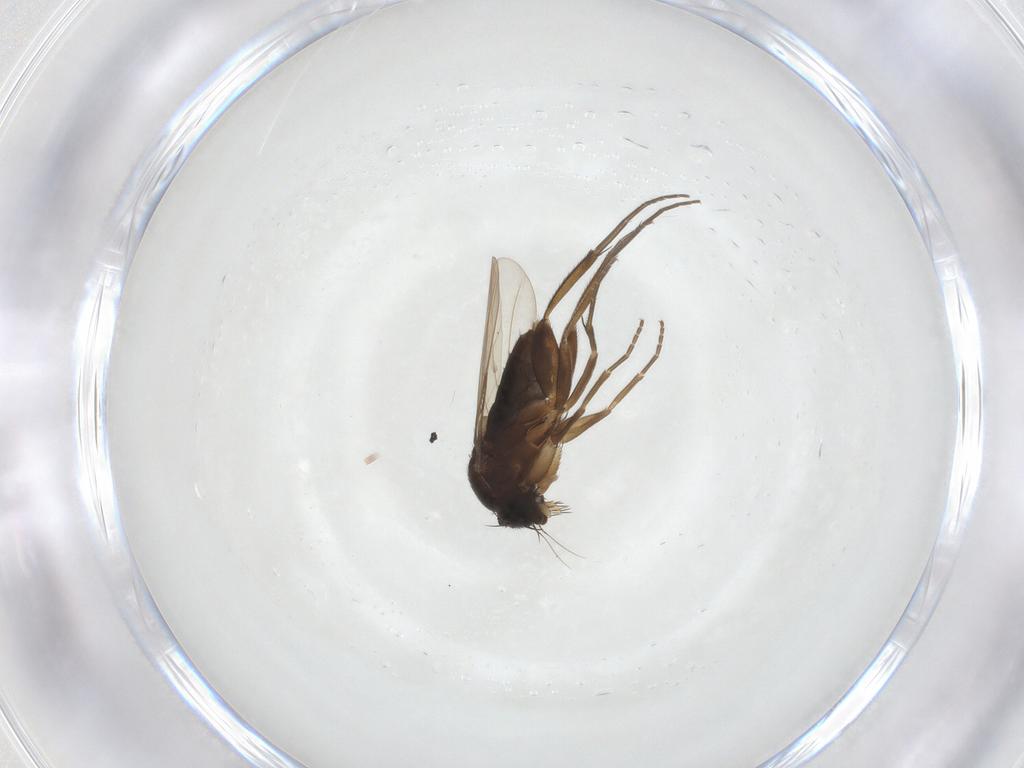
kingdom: Animalia
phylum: Arthropoda
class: Insecta
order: Diptera
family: Phoridae
